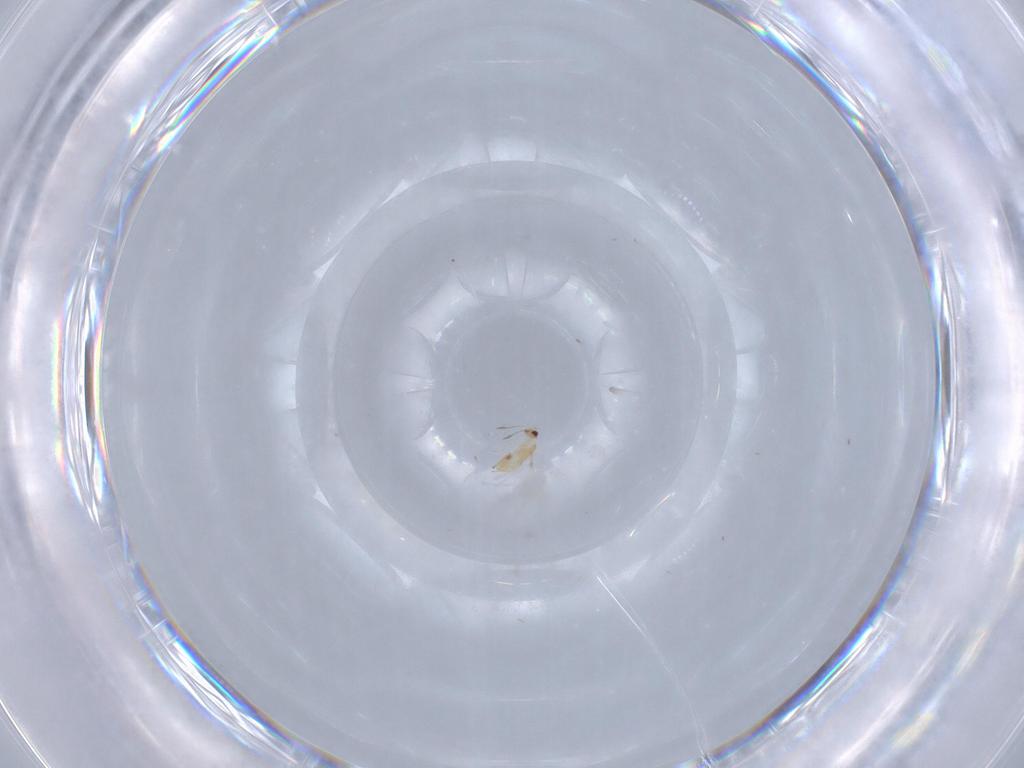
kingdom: Animalia
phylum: Arthropoda
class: Insecta
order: Hymenoptera
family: Mymaridae
